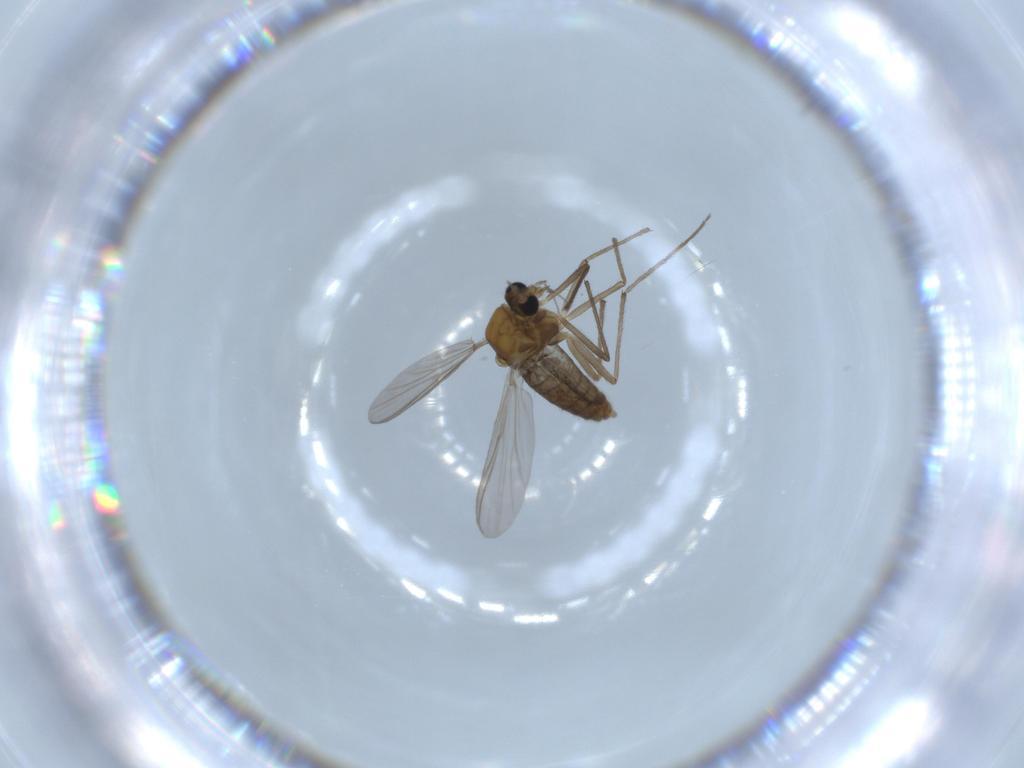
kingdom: Animalia
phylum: Arthropoda
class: Insecta
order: Diptera
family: Chironomidae
